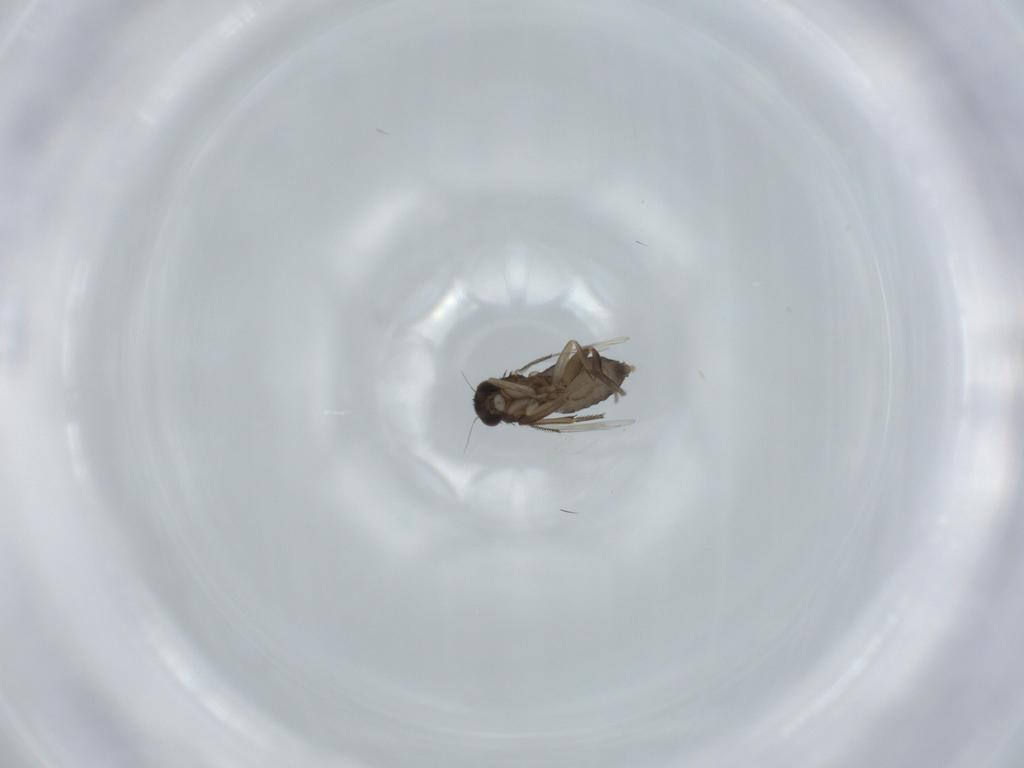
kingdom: Animalia
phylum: Arthropoda
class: Insecta
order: Diptera
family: Phoridae
